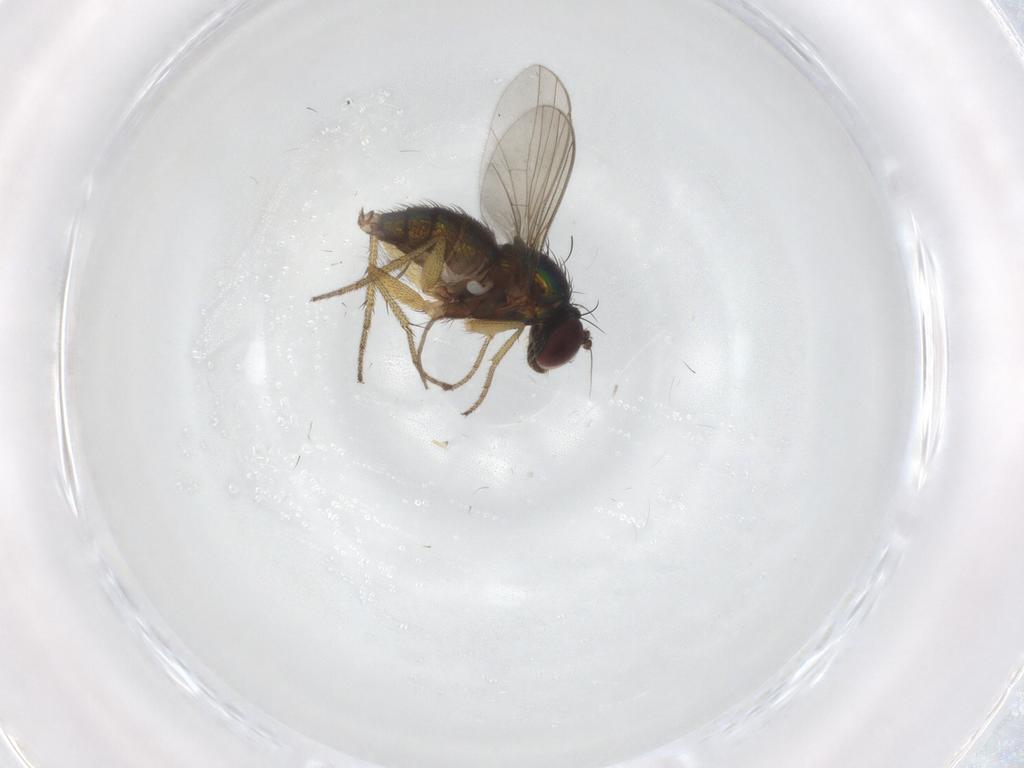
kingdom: Animalia
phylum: Arthropoda
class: Insecta
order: Diptera
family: Chironomidae
